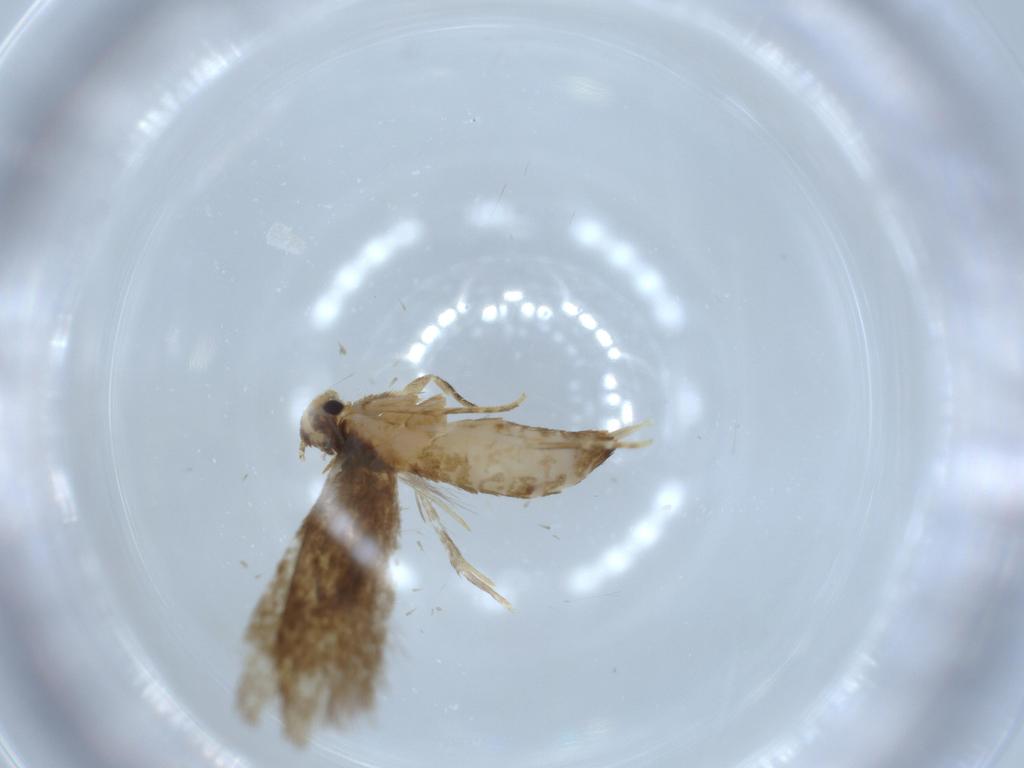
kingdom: Animalia
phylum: Arthropoda
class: Insecta
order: Lepidoptera
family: Tineidae
